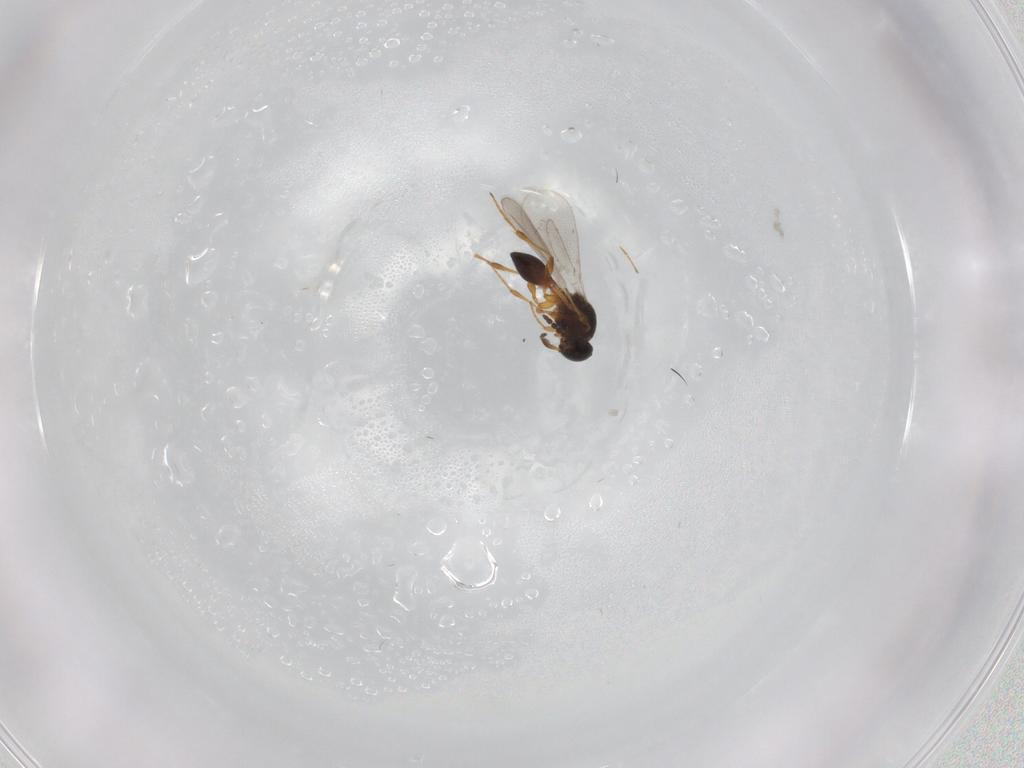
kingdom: Animalia
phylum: Arthropoda
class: Insecta
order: Hymenoptera
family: Platygastridae
